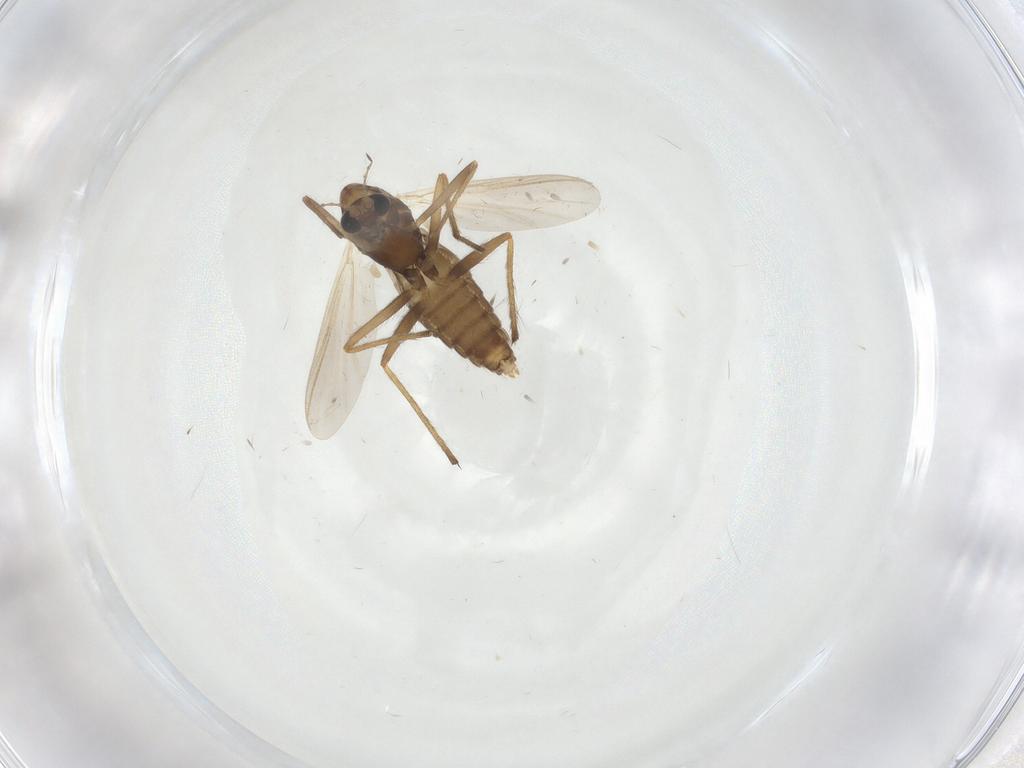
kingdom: Animalia
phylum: Arthropoda
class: Insecta
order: Diptera
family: Chironomidae
